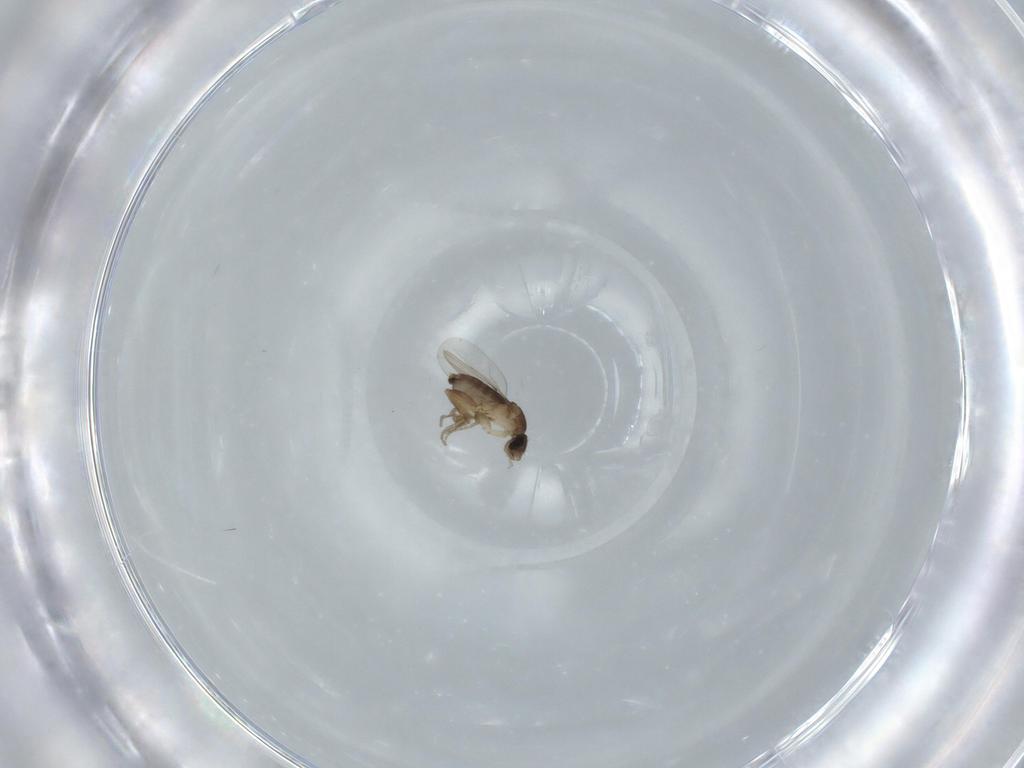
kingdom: Animalia
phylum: Arthropoda
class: Insecta
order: Diptera
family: Phoridae
